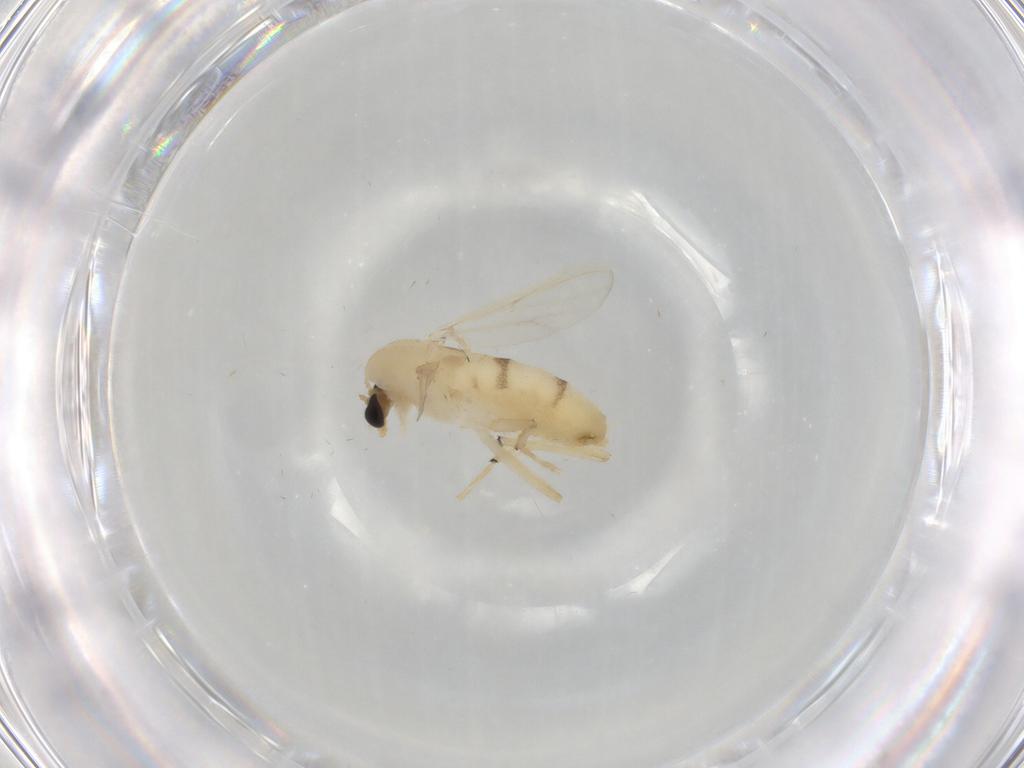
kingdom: Animalia
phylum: Arthropoda
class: Insecta
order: Diptera
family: Chironomidae
